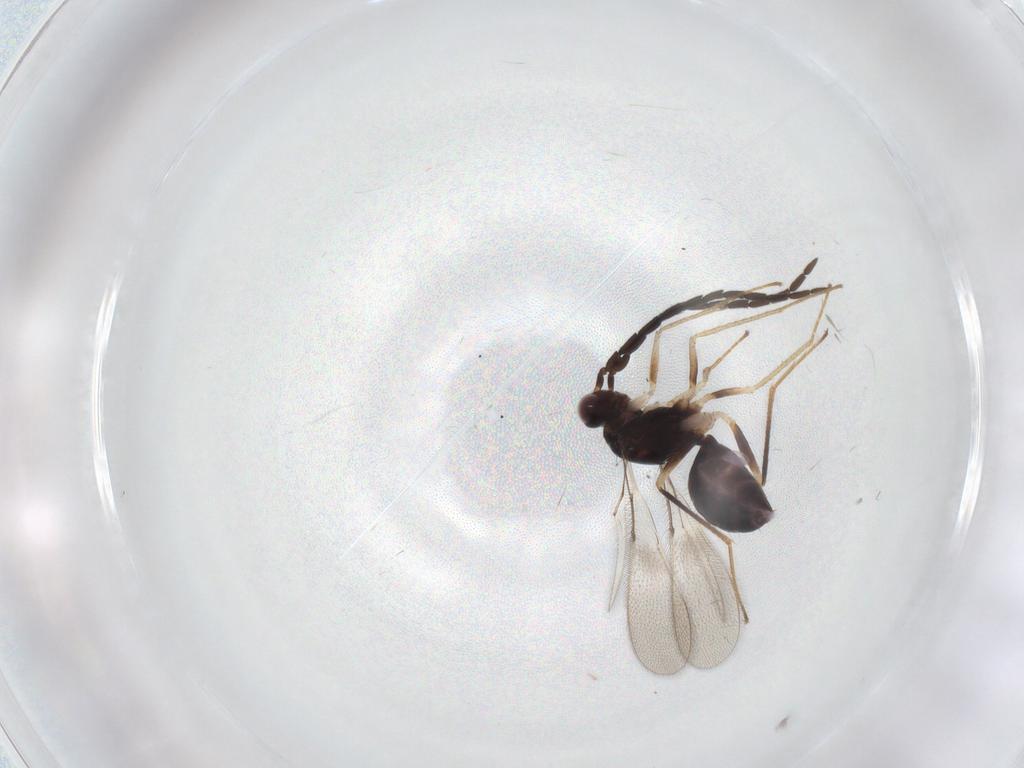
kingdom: Animalia
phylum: Arthropoda
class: Insecta
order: Hymenoptera
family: Mymaridae
